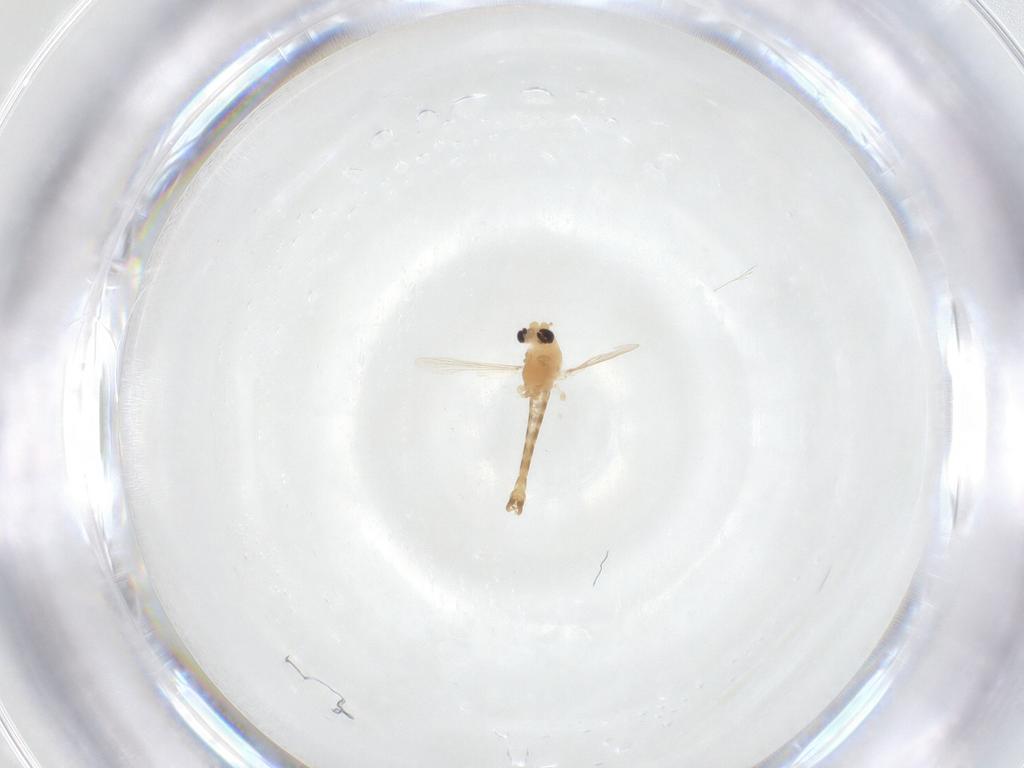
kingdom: Animalia
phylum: Arthropoda
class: Insecta
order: Diptera
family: Chironomidae
